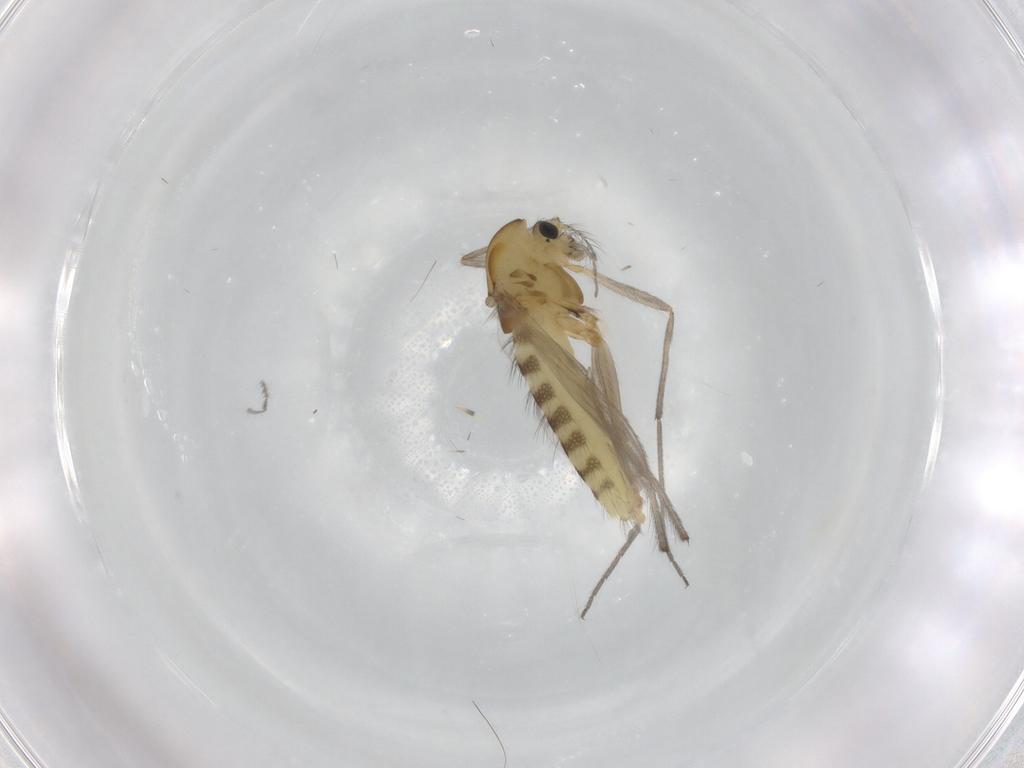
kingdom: Animalia
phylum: Arthropoda
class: Insecta
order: Diptera
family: Chironomidae
